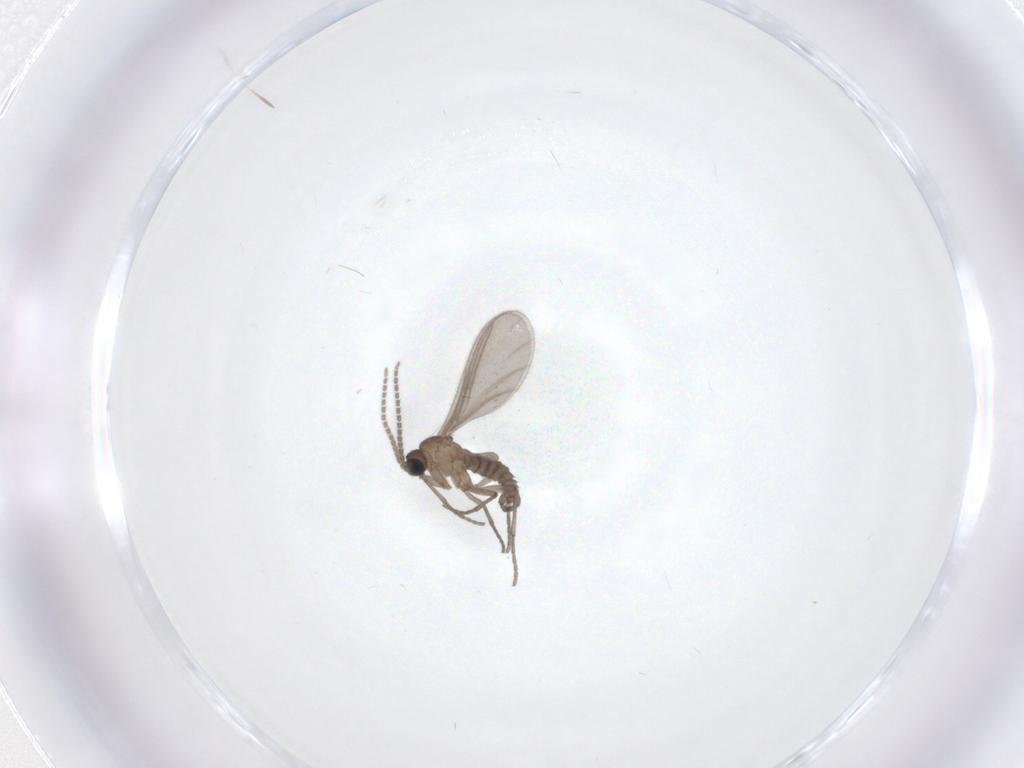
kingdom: Animalia
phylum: Arthropoda
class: Insecta
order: Diptera
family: Sciaridae
